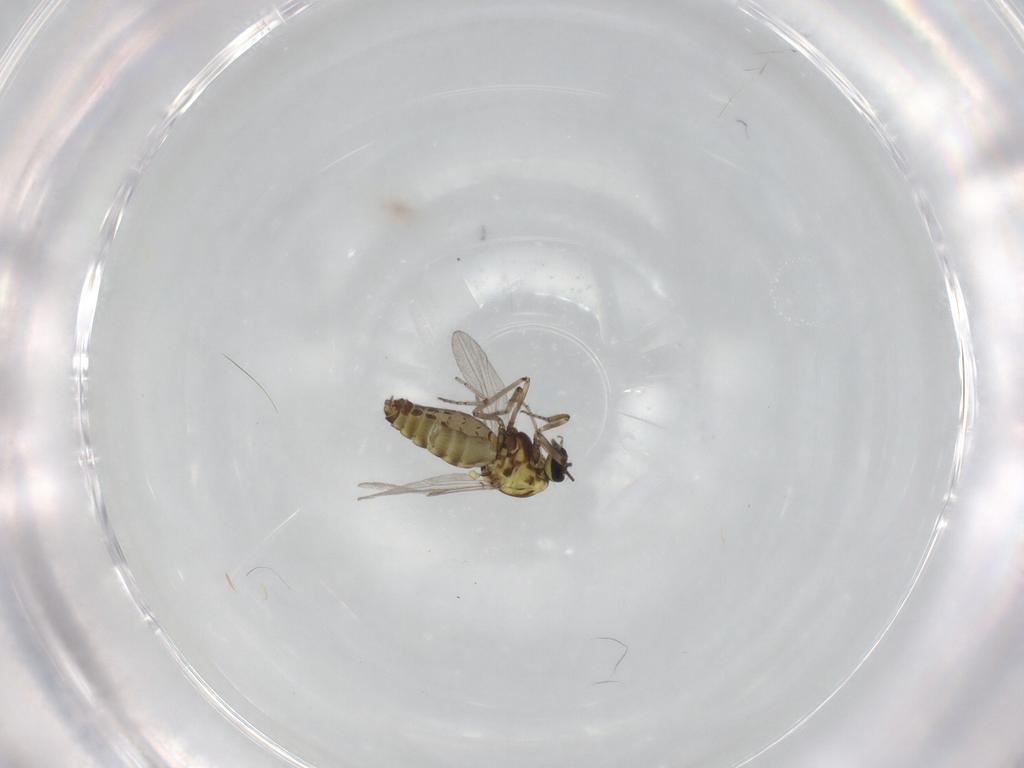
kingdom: Animalia
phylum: Arthropoda
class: Insecta
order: Diptera
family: Ceratopogonidae
